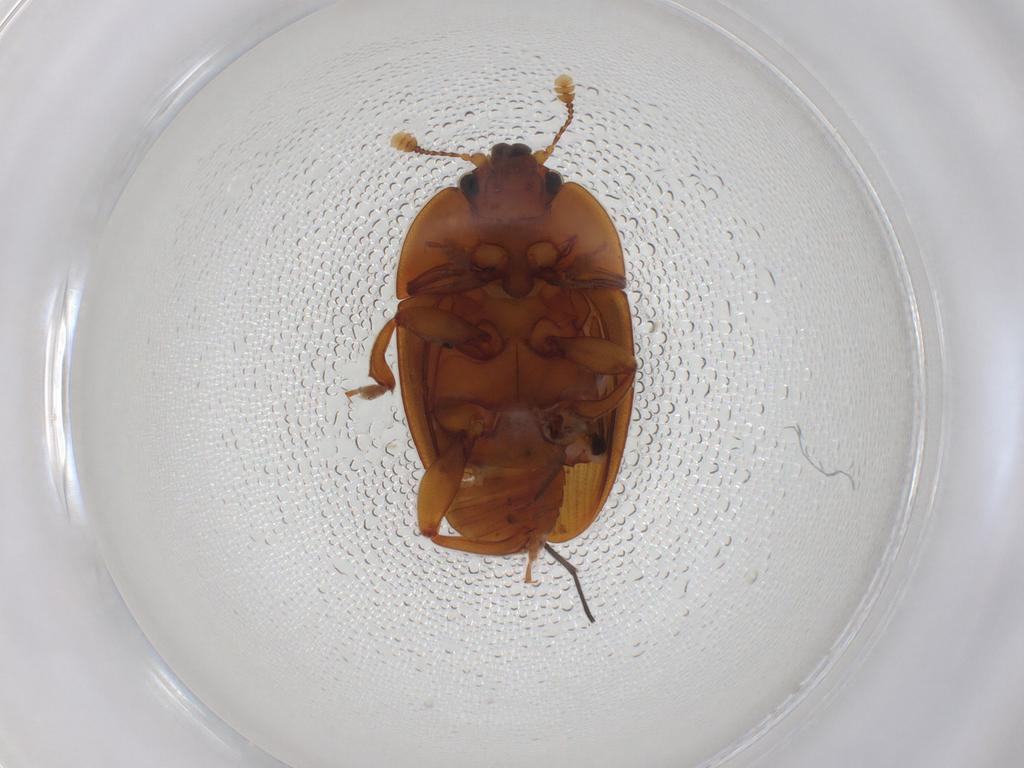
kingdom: Animalia
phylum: Arthropoda
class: Insecta
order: Coleoptera
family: Nitidulidae
